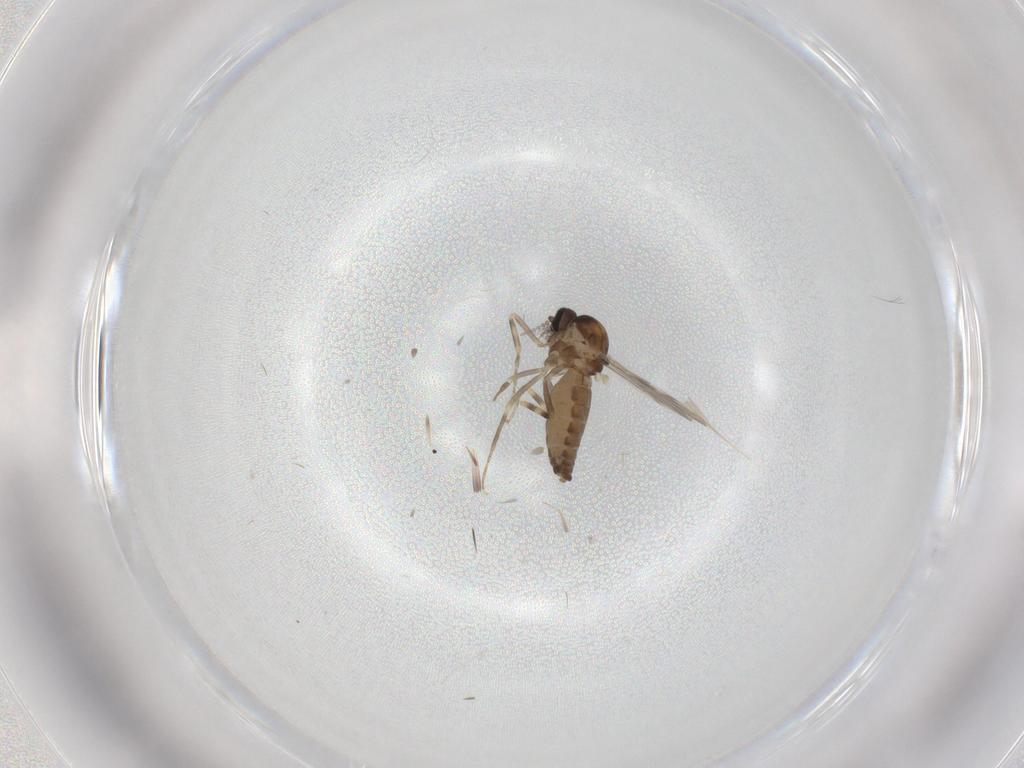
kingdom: Animalia
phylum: Arthropoda
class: Insecta
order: Diptera
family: Ceratopogonidae
